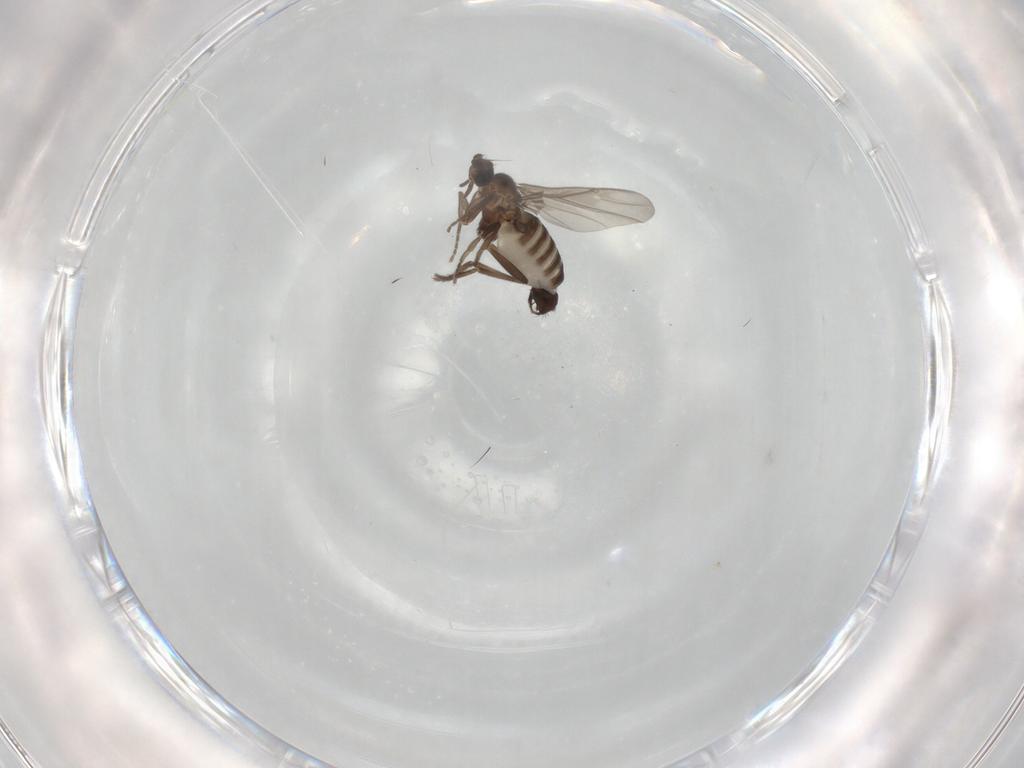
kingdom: Animalia
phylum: Arthropoda
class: Insecta
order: Diptera
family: Phoridae
